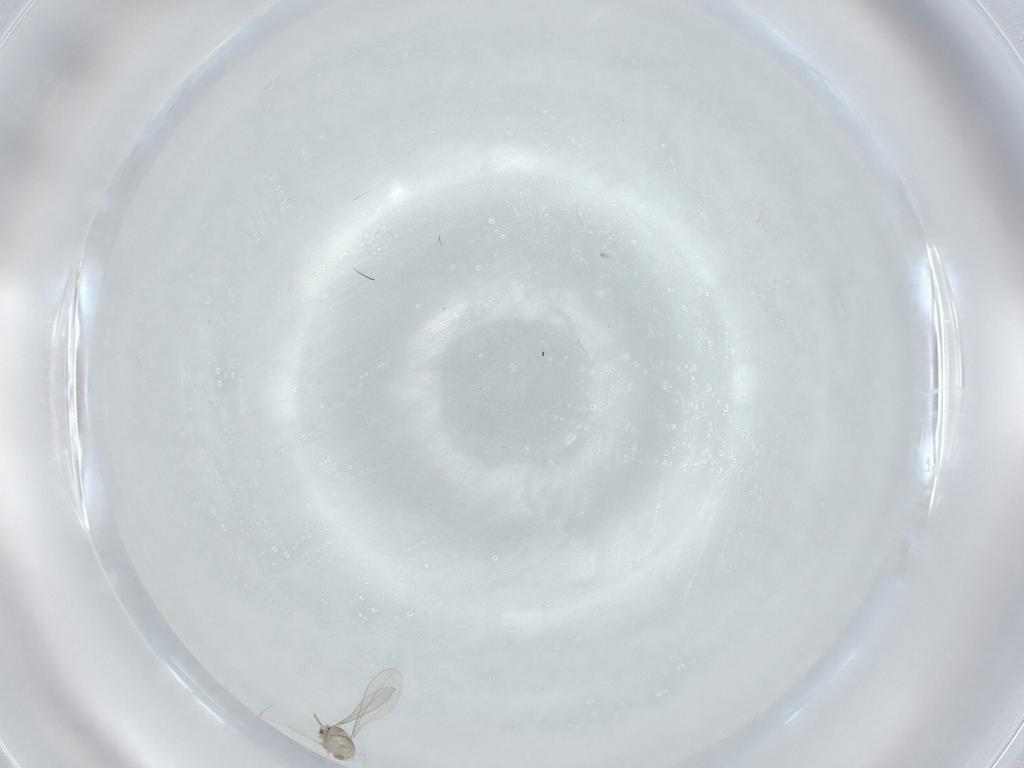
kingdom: Animalia
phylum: Arthropoda
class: Insecta
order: Diptera
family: Cecidomyiidae
